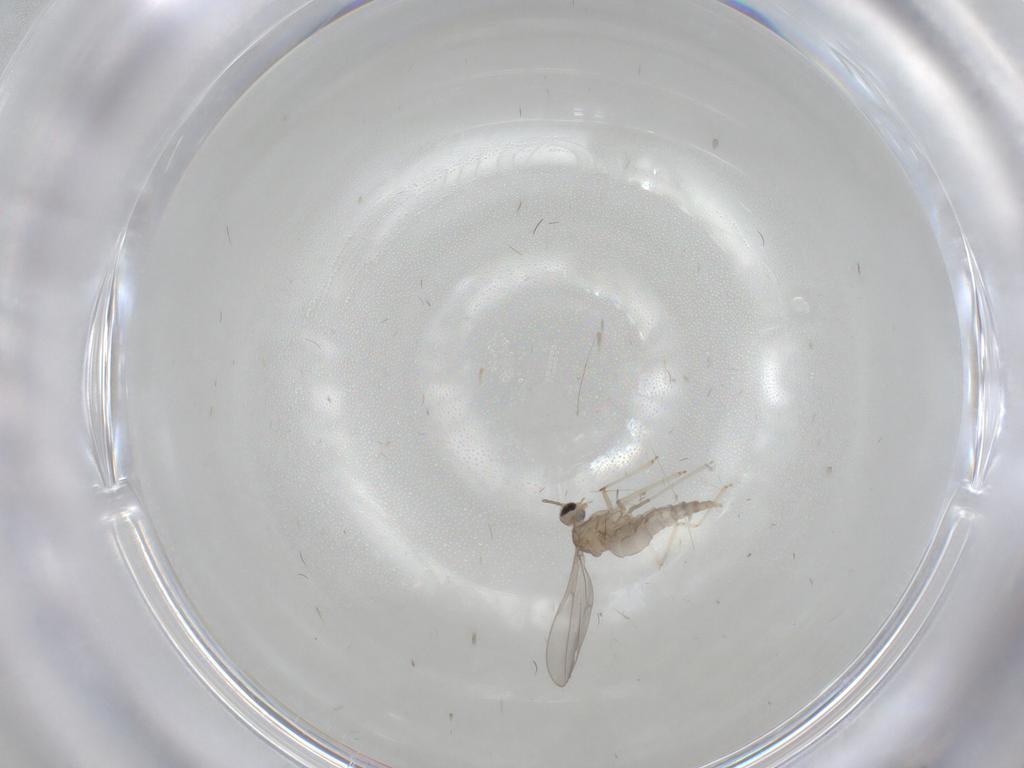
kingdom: Animalia
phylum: Arthropoda
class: Insecta
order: Diptera
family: Cecidomyiidae
